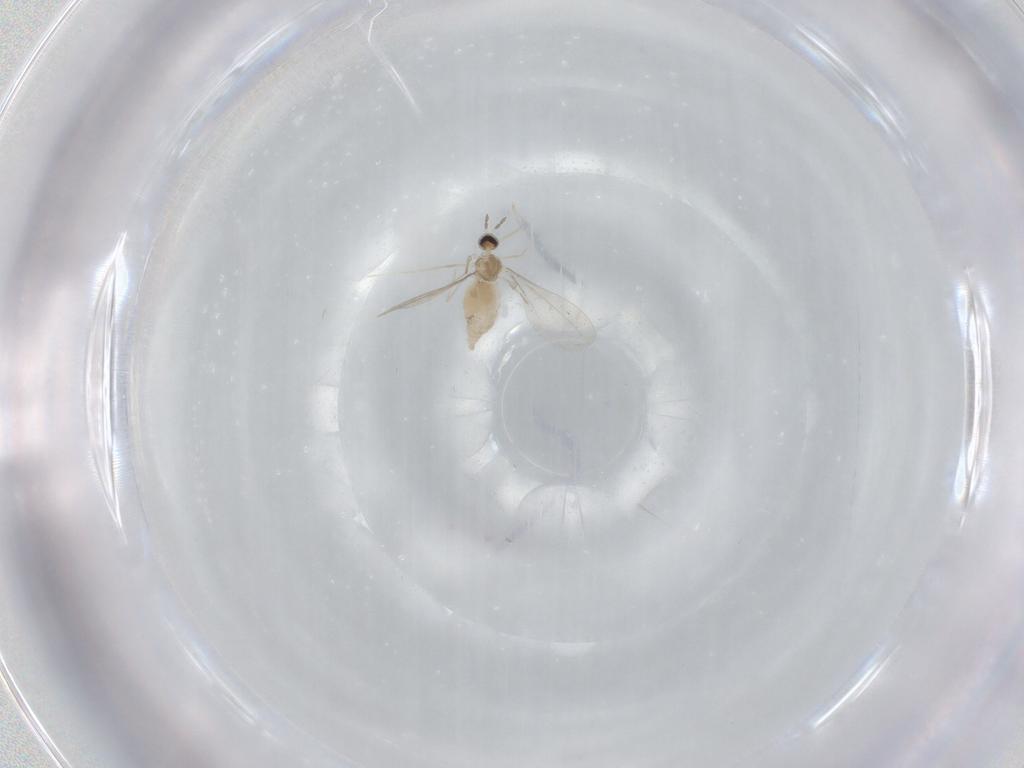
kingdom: Animalia
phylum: Arthropoda
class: Insecta
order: Diptera
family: Cecidomyiidae
